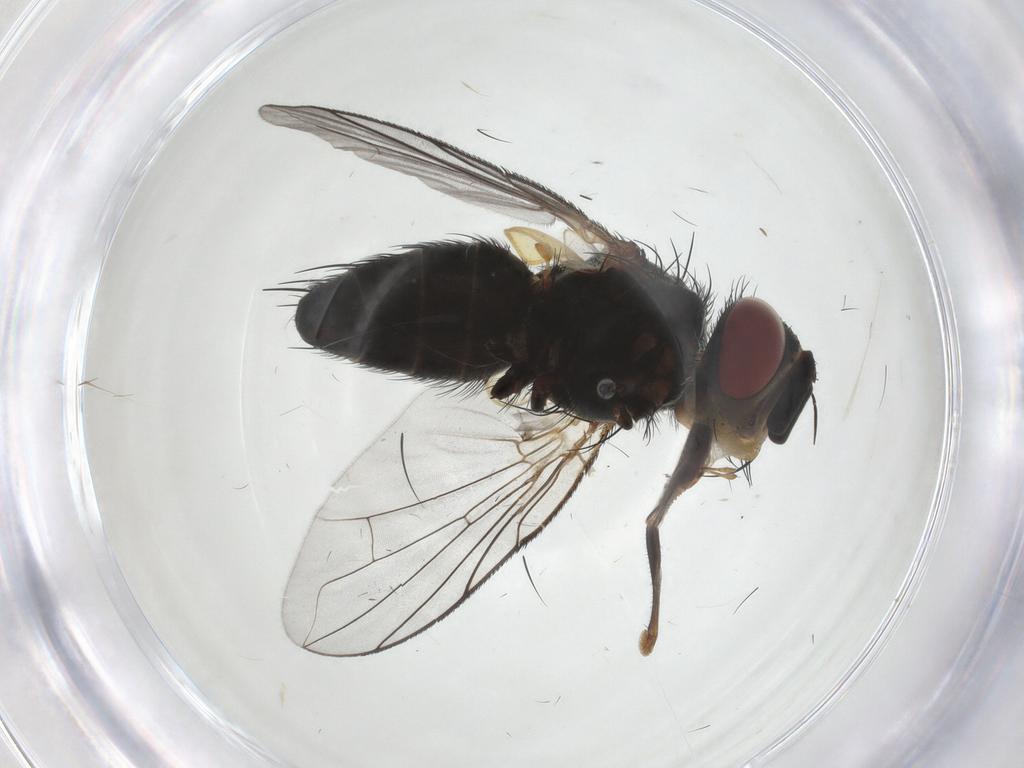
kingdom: Animalia
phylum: Arthropoda
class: Insecta
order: Diptera
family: Tachinidae
